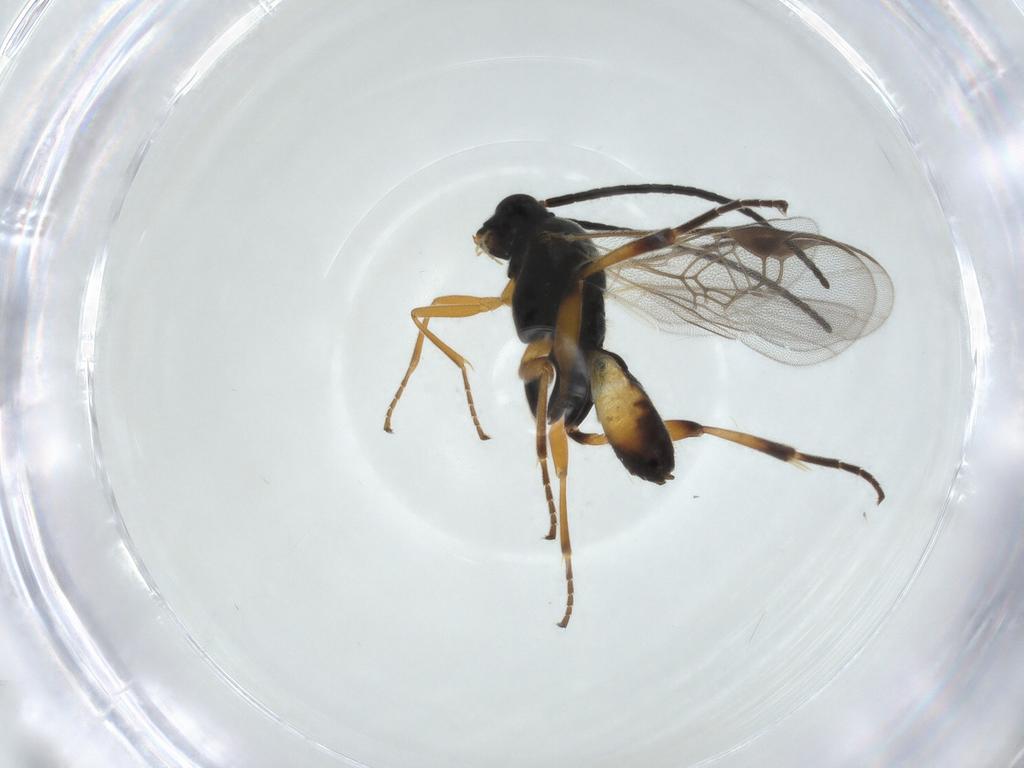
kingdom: Animalia
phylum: Arthropoda
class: Insecta
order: Hymenoptera
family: Braconidae
